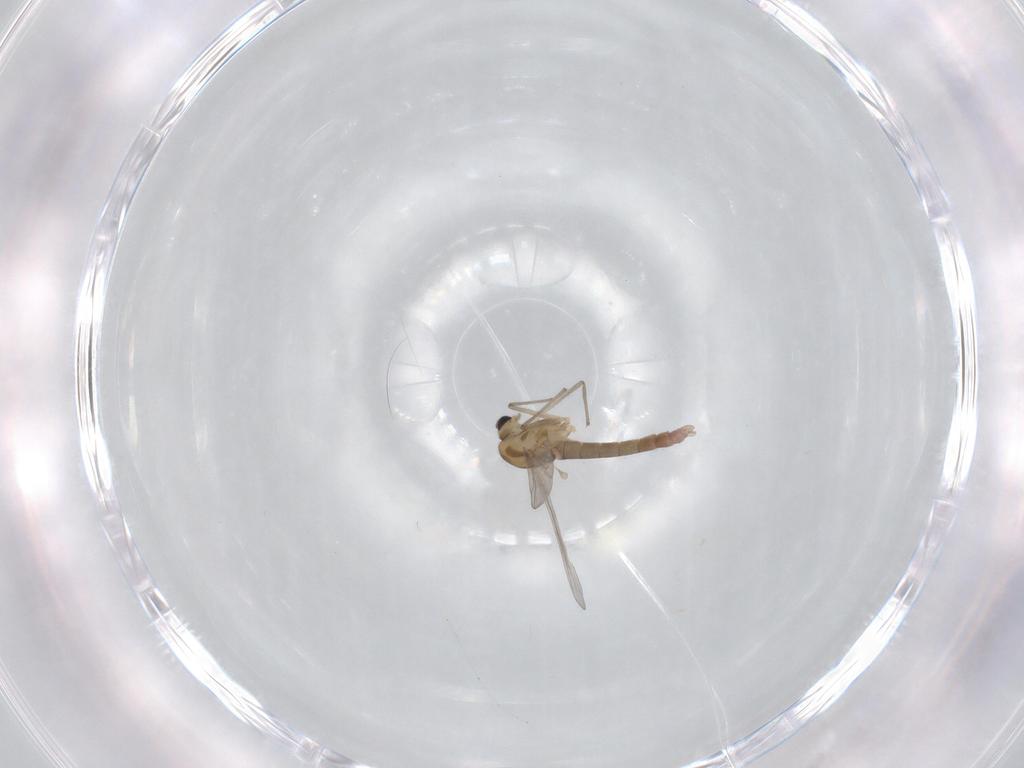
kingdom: Animalia
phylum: Arthropoda
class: Insecta
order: Diptera
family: Chironomidae
